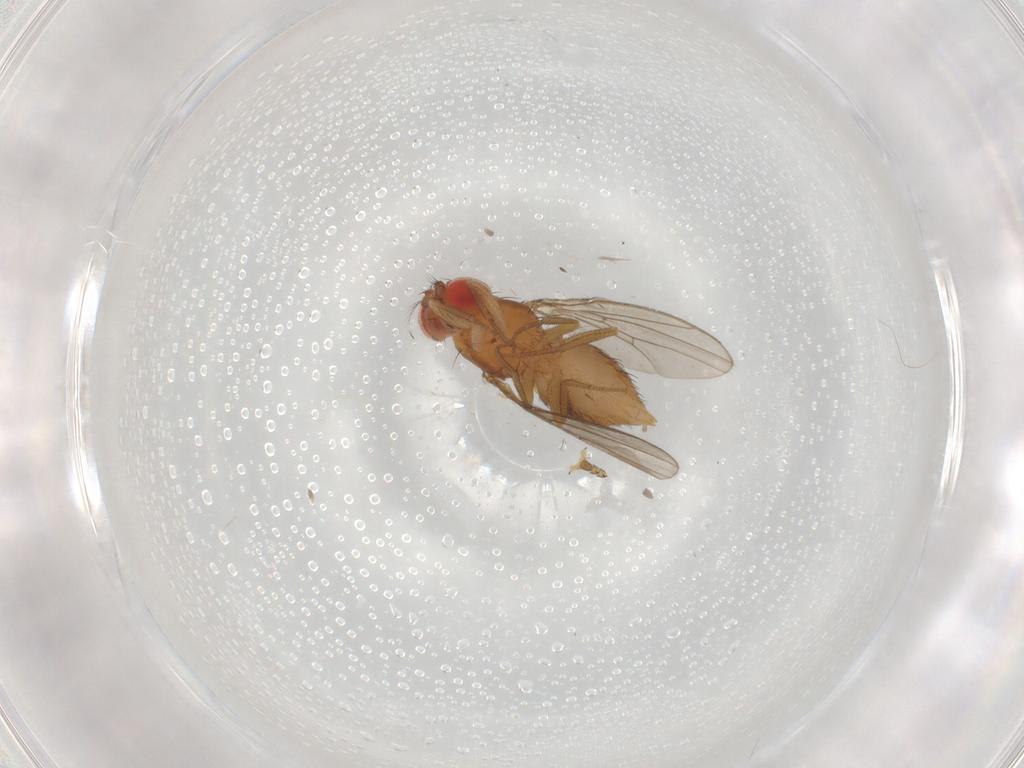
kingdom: Animalia
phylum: Arthropoda
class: Insecta
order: Diptera
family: Drosophilidae
